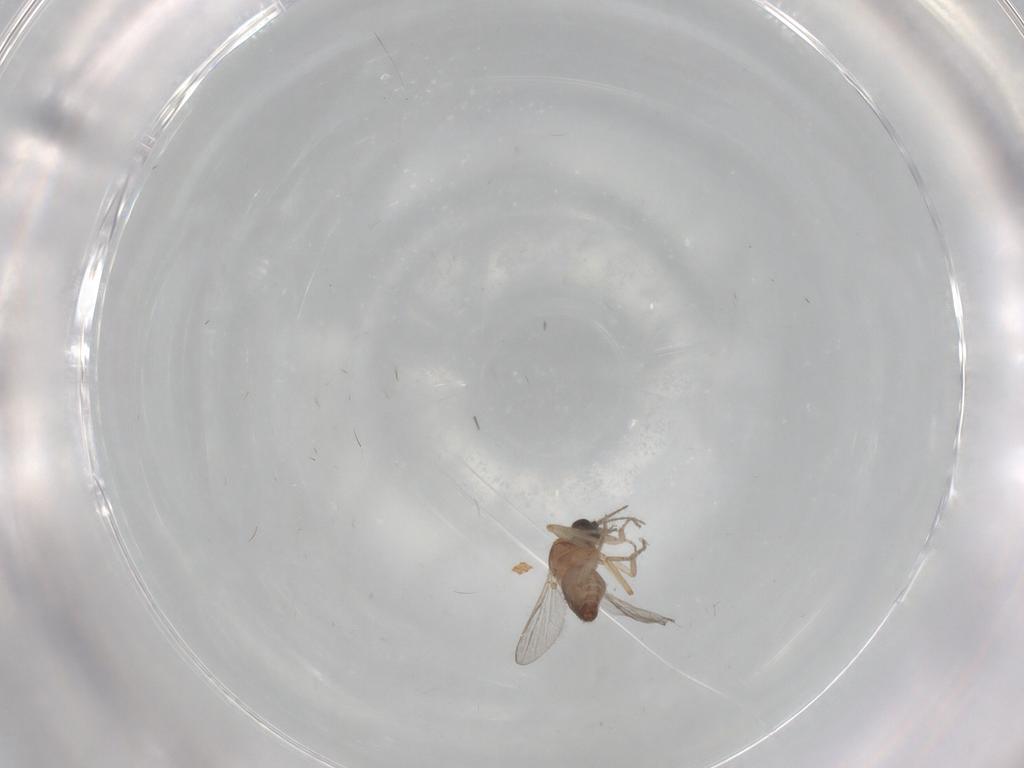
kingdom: Animalia
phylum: Arthropoda
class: Insecta
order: Diptera
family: Ceratopogonidae
